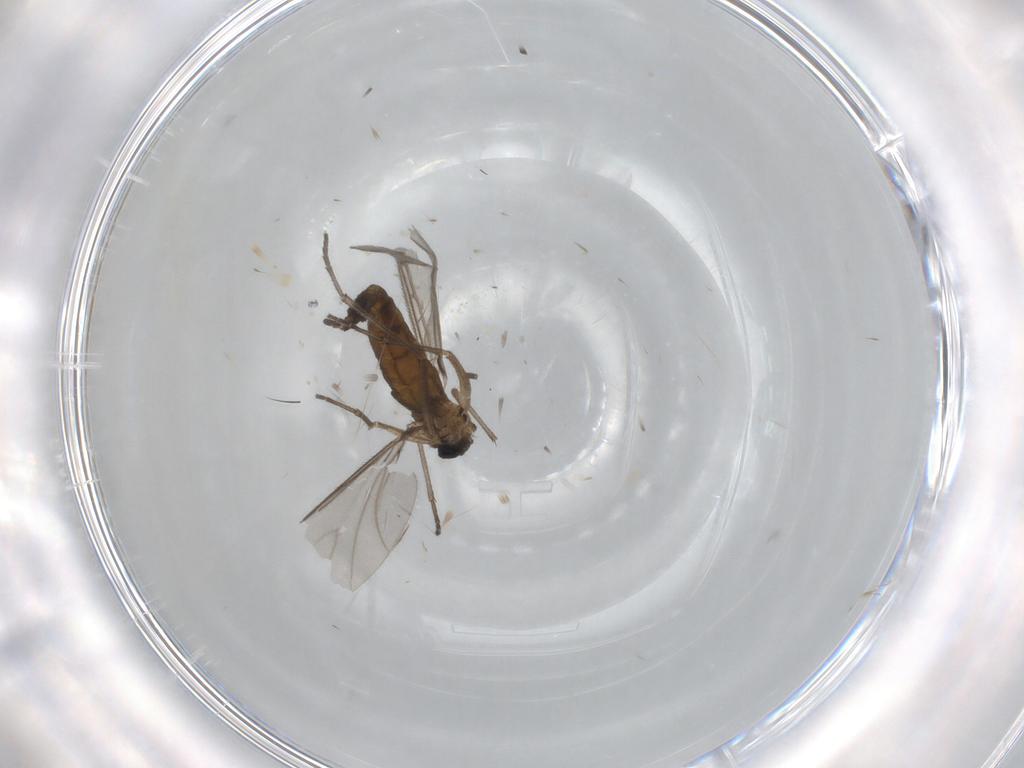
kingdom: Animalia
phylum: Arthropoda
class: Insecta
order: Diptera
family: Sciaridae
